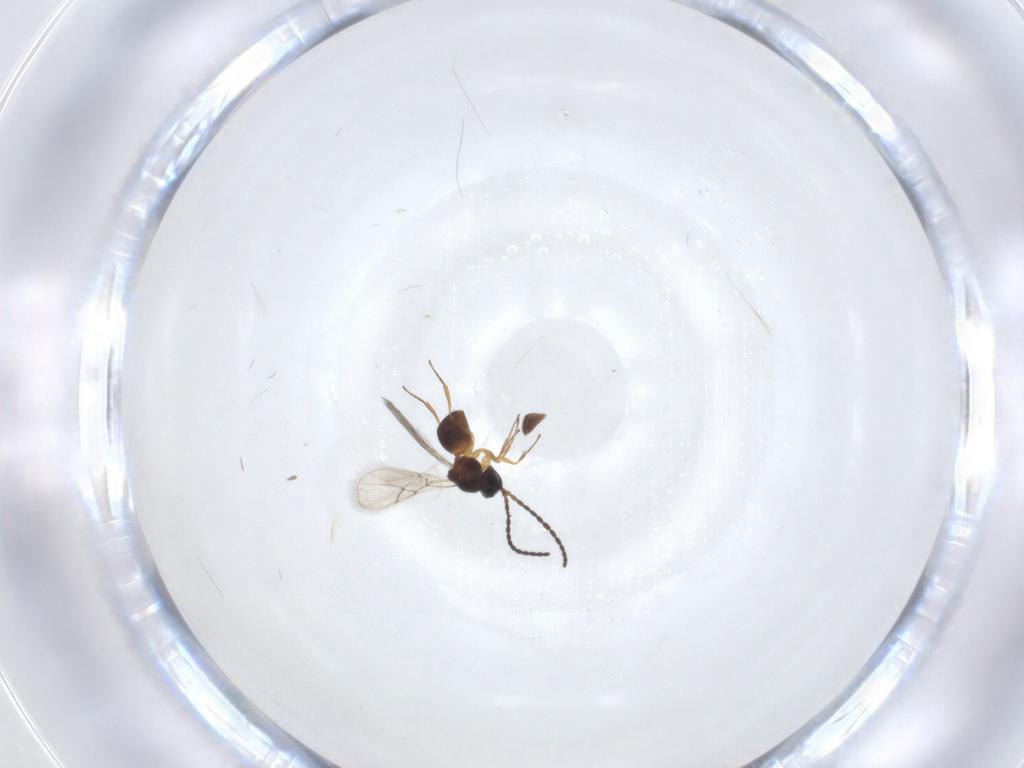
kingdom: Animalia
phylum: Arthropoda
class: Insecta
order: Hymenoptera
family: Figitidae
